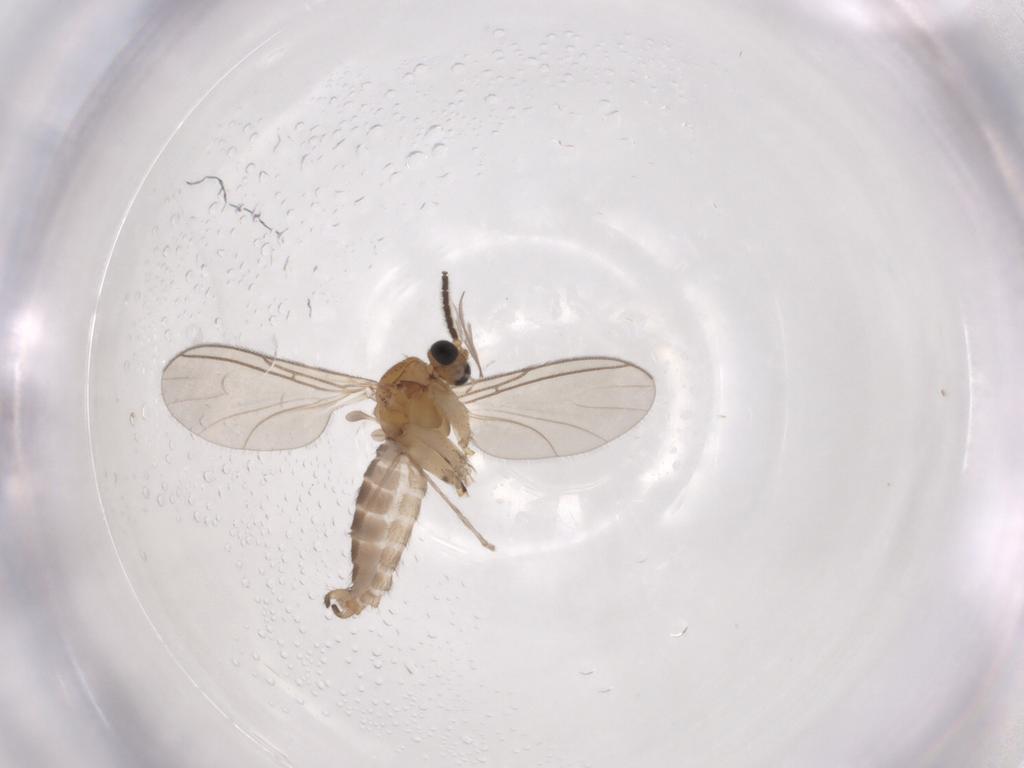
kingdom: Animalia
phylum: Arthropoda
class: Insecta
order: Diptera
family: Sciaridae
